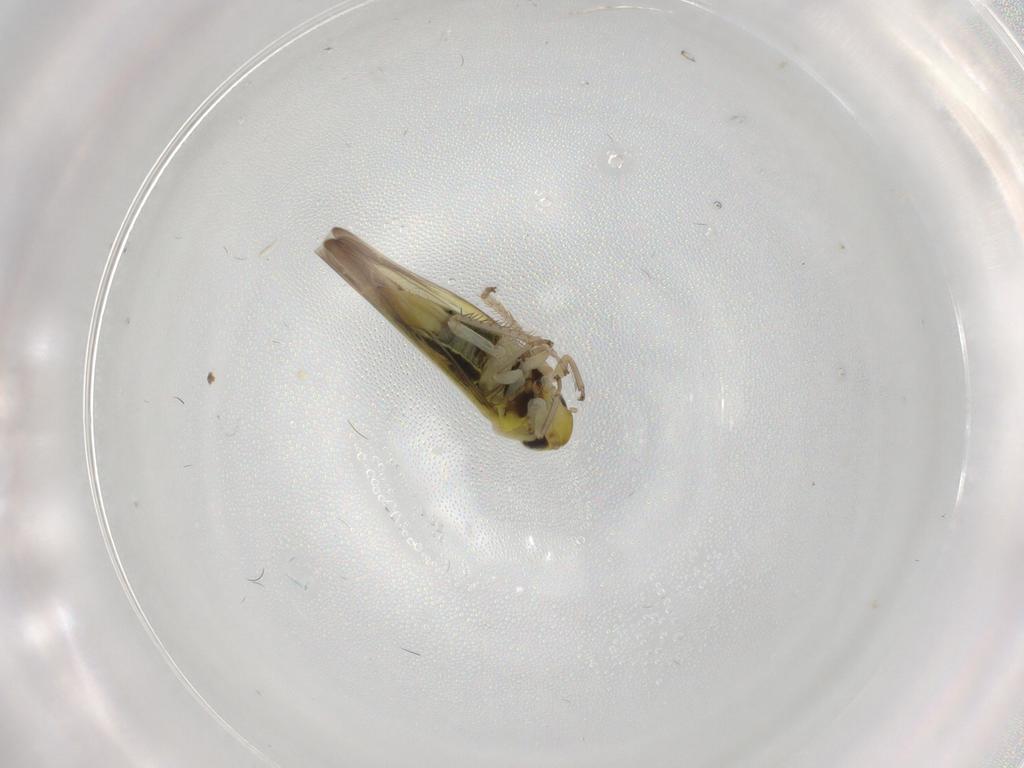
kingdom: Animalia
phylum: Arthropoda
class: Insecta
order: Hemiptera
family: Cicadellidae
